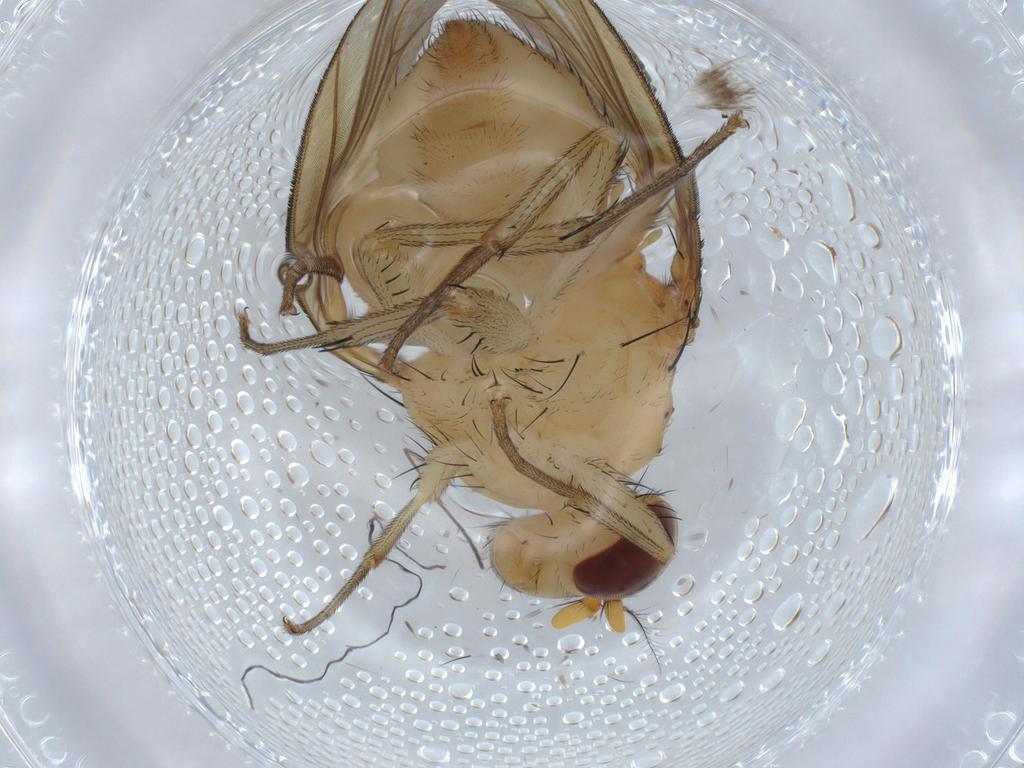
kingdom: Animalia
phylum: Arthropoda
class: Insecta
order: Diptera
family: Sciaridae
